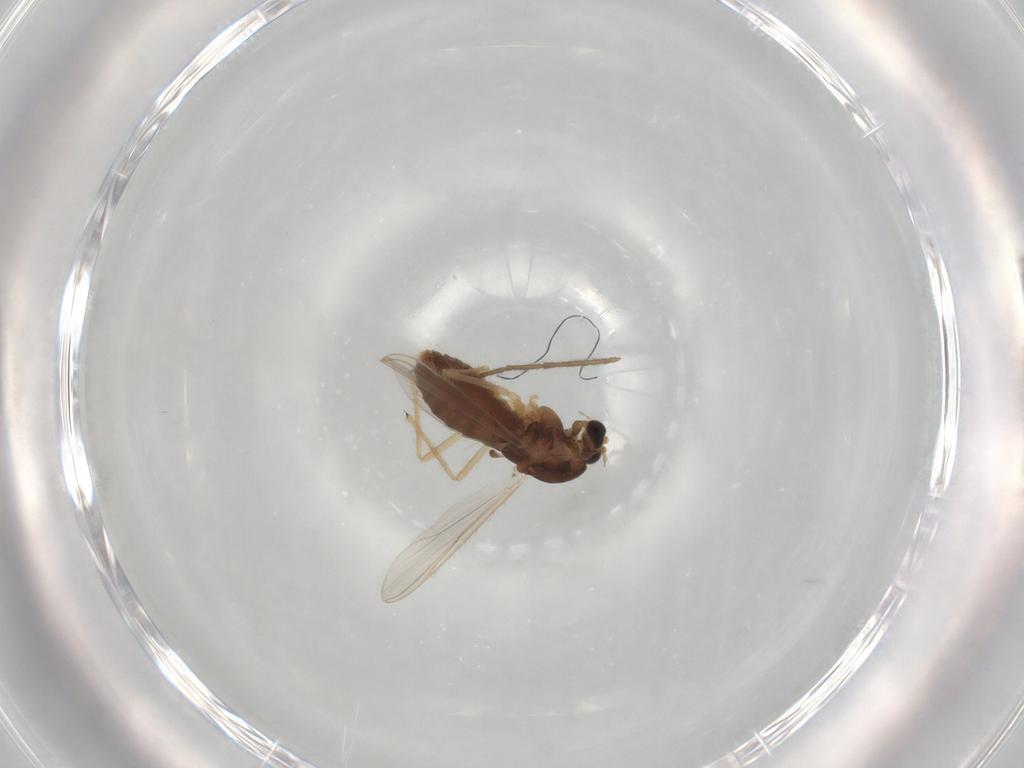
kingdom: Animalia
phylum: Arthropoda
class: Insecta
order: Diptera
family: Chironomidae
